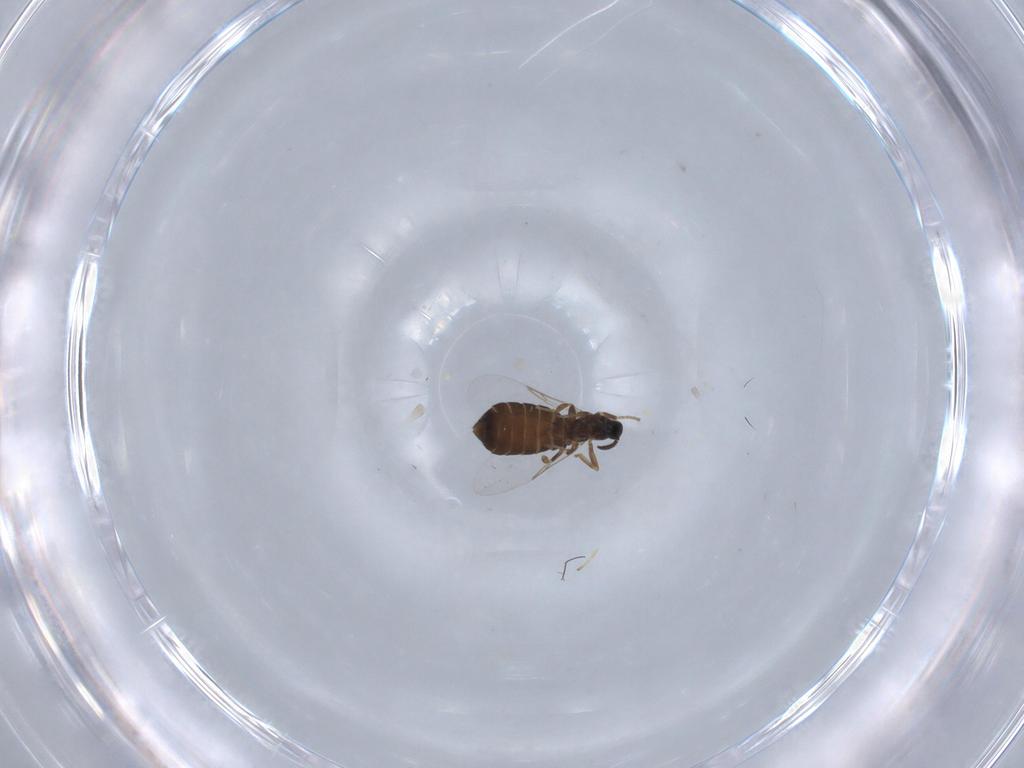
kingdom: Animalia
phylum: Arthropoda
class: Insecta
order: Diptera
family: Scatopsidae
